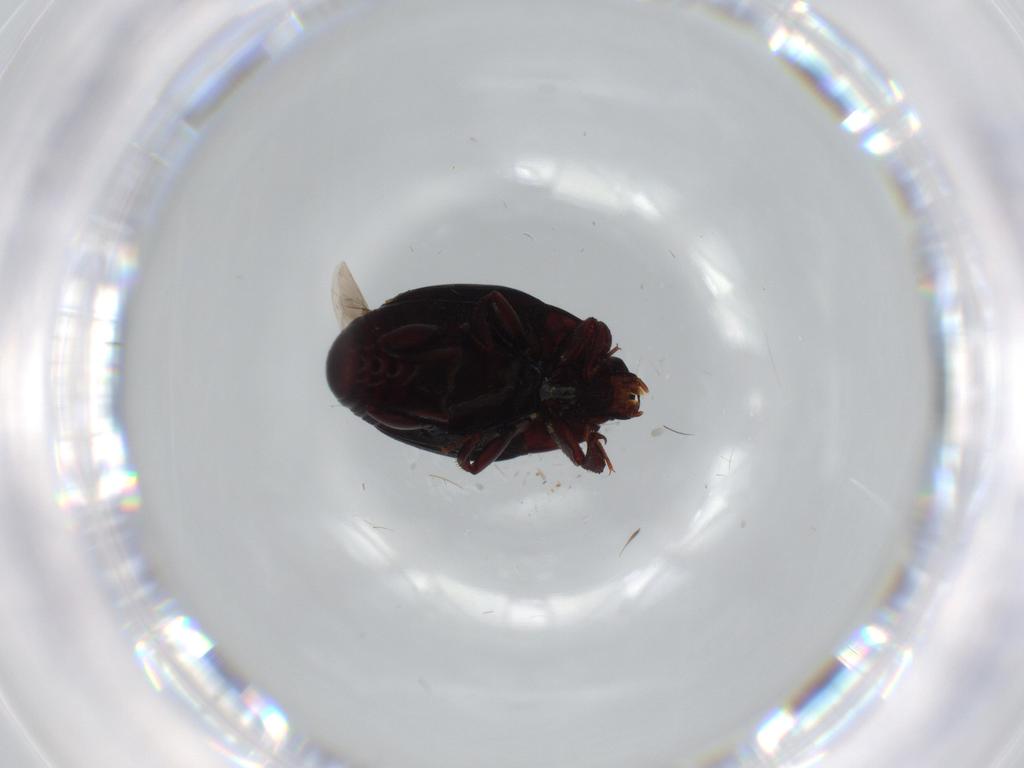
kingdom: Animalia
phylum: Arthropoda
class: Insecta
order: Coleoptera
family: Histeridae
